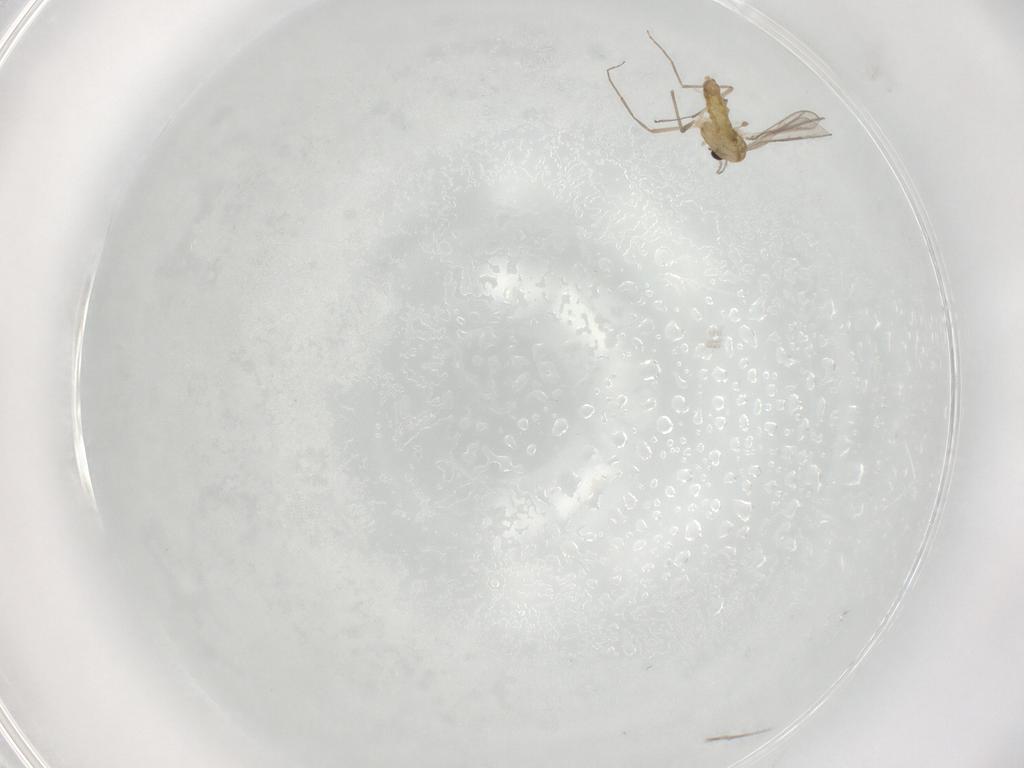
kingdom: Animalia
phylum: Arthropoda
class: Insecta
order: Diptera
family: Chironomidae
